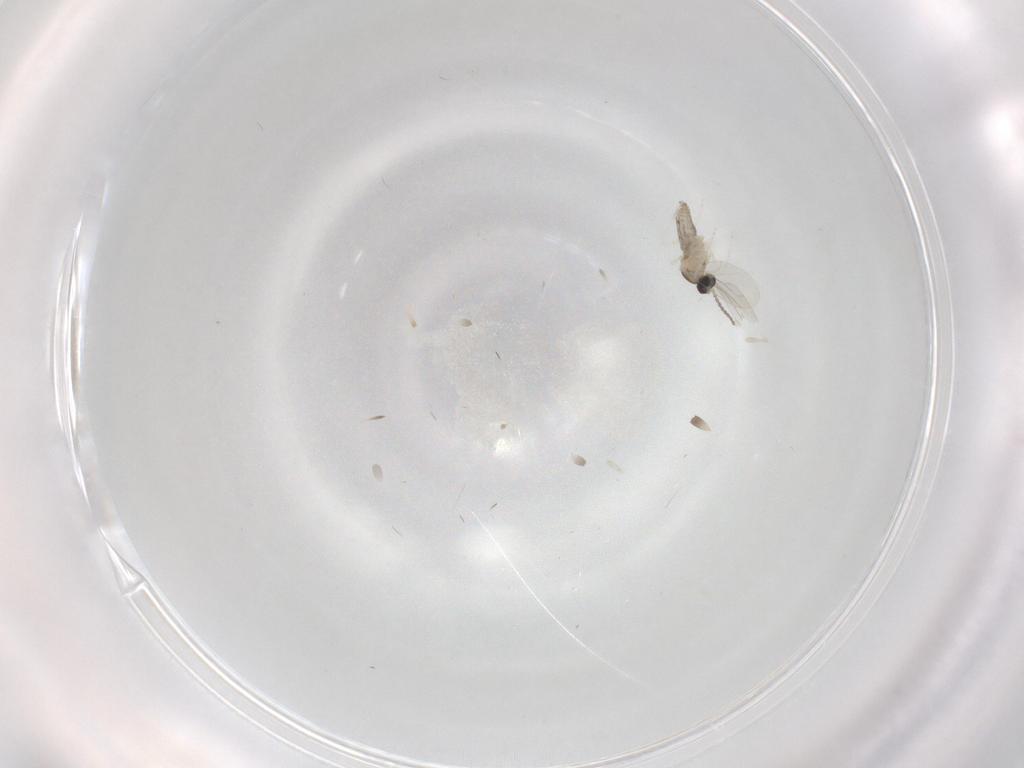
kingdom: Animalia
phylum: Arthropoda
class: Insecta
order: Diptera
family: Cecidomyiidae
